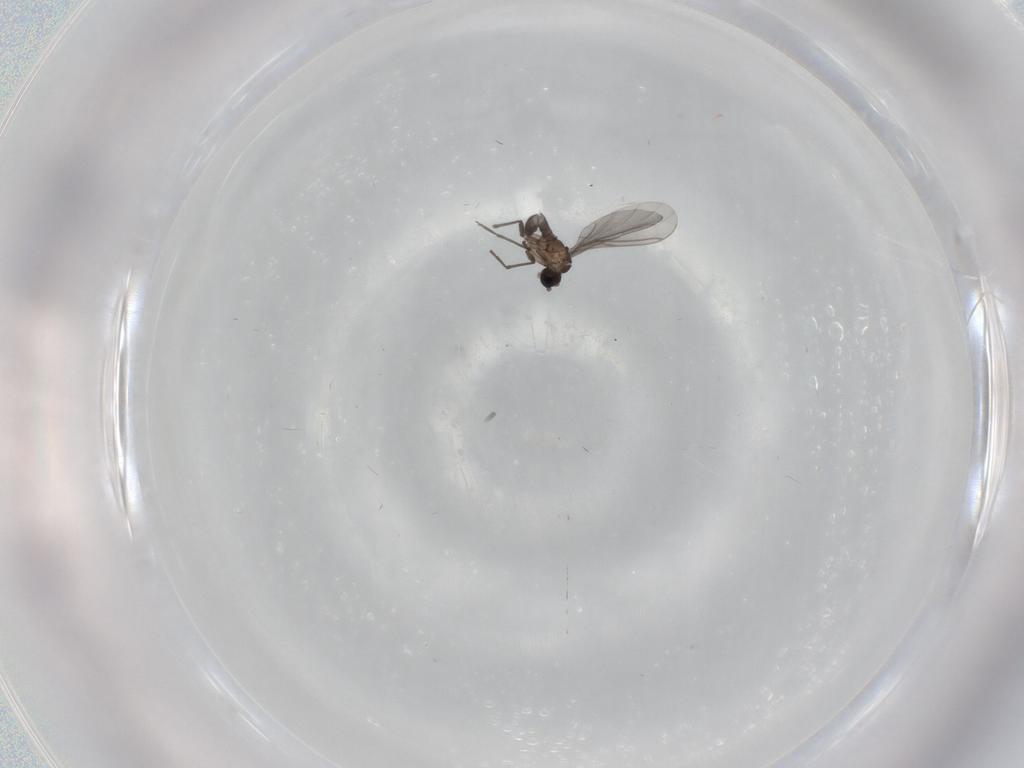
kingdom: Animalia
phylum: Arthropoda
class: Insecta
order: Diptera
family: Sciaridae
